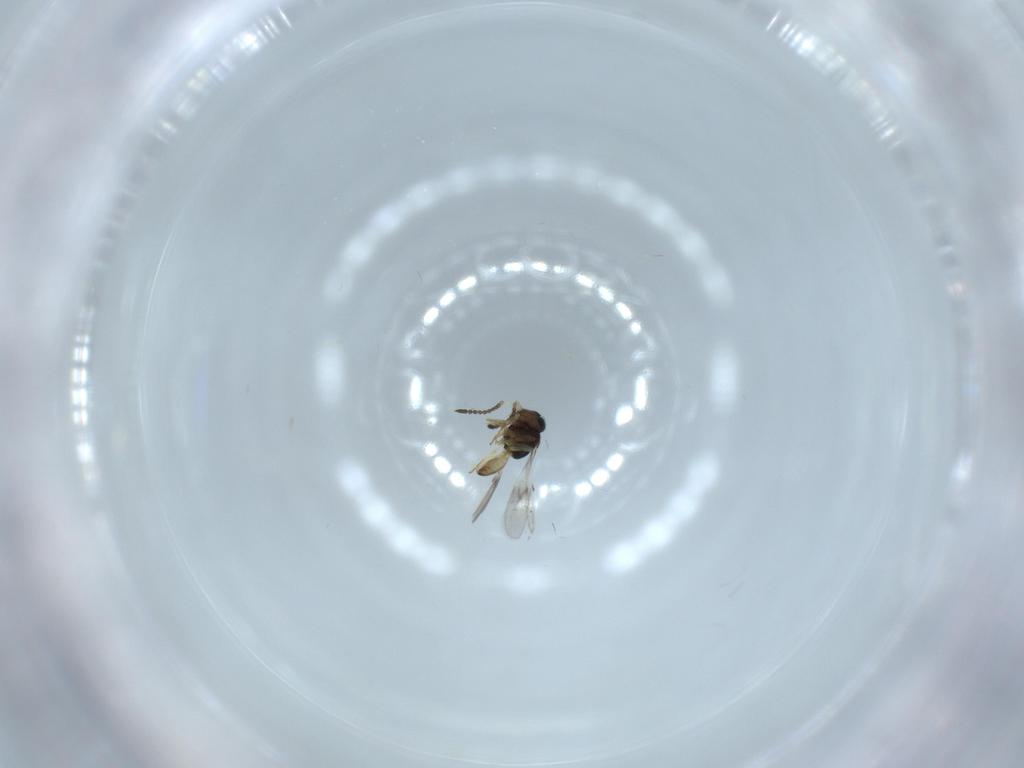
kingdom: Animalia
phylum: Arthropoda
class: Insecta
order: Hymenoptera
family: Scelionidae
